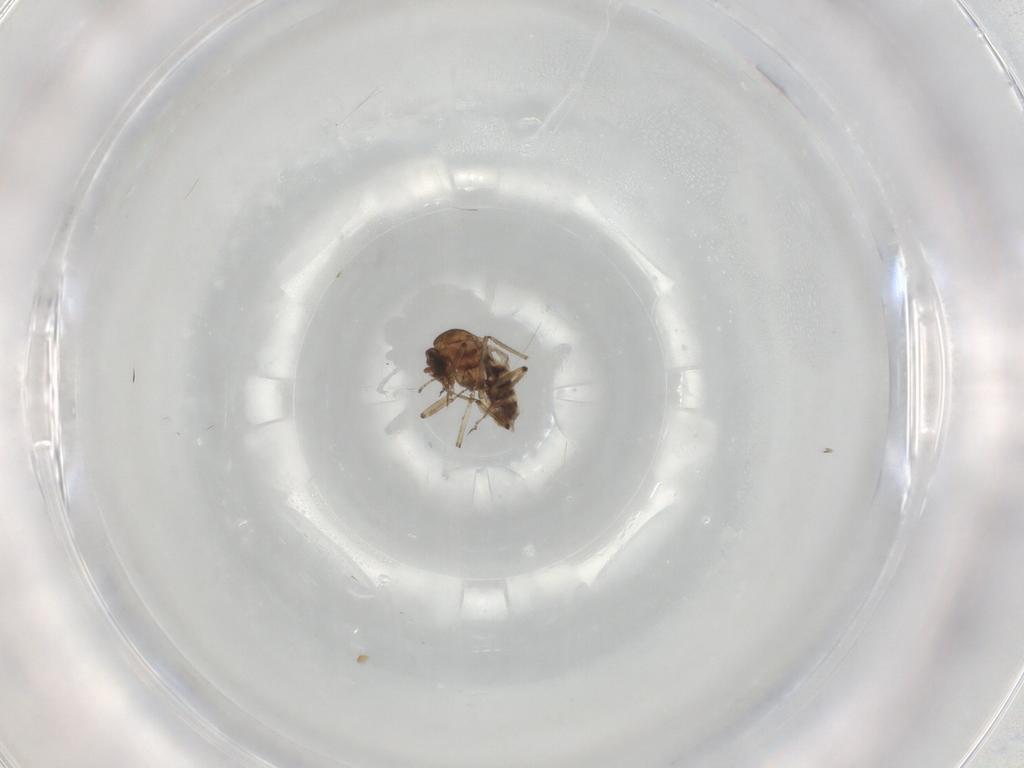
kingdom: Animalia
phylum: Arthropoda
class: Insecta
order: Diptera
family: Ceratopogonidae
